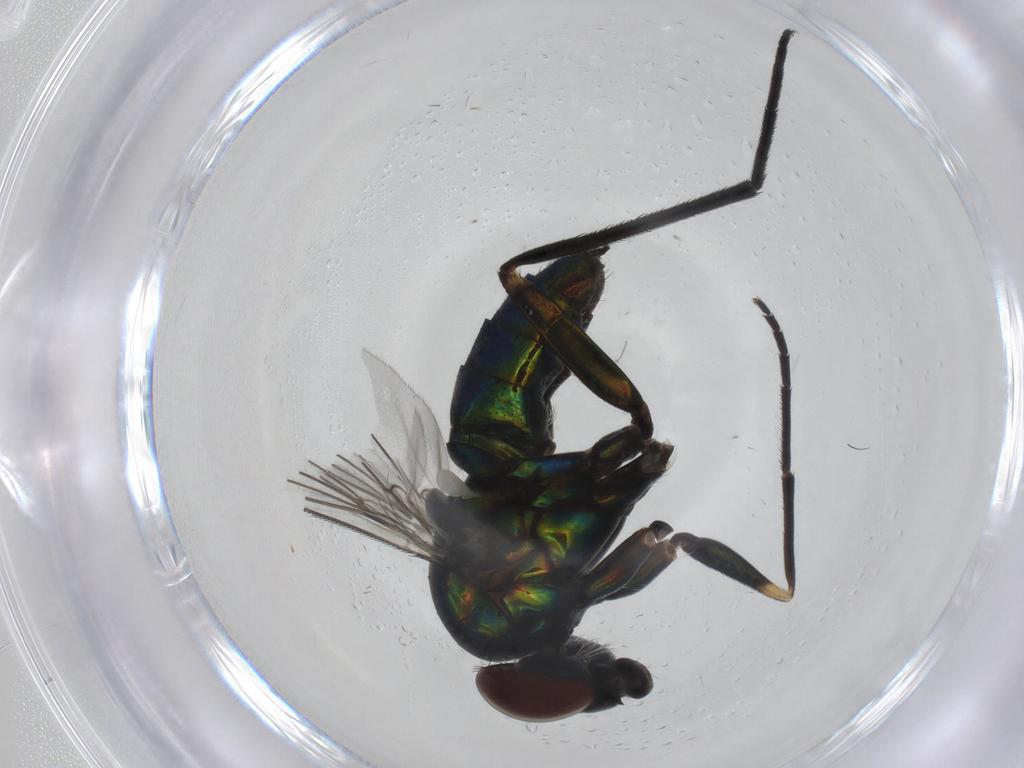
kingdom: Animalia
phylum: Arthropoda
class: Insecta
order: Diptera
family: Dolichopodidae
